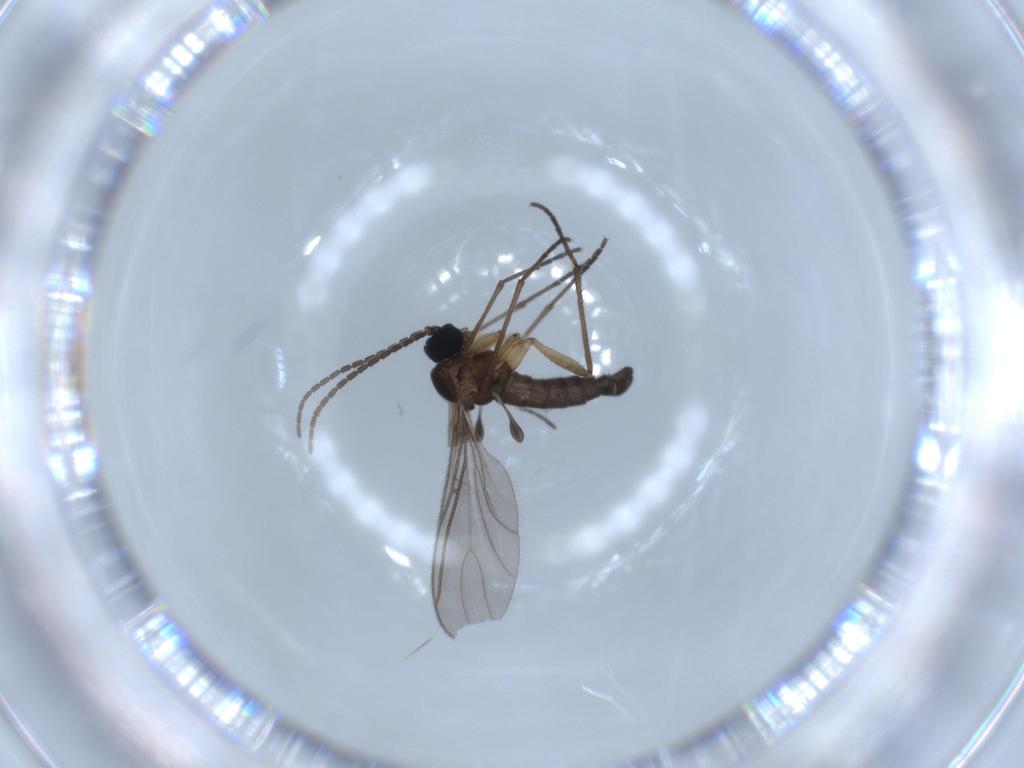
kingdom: Animalia
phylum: Arthropoda
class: Insecta
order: Diptera
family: Sciaridae
